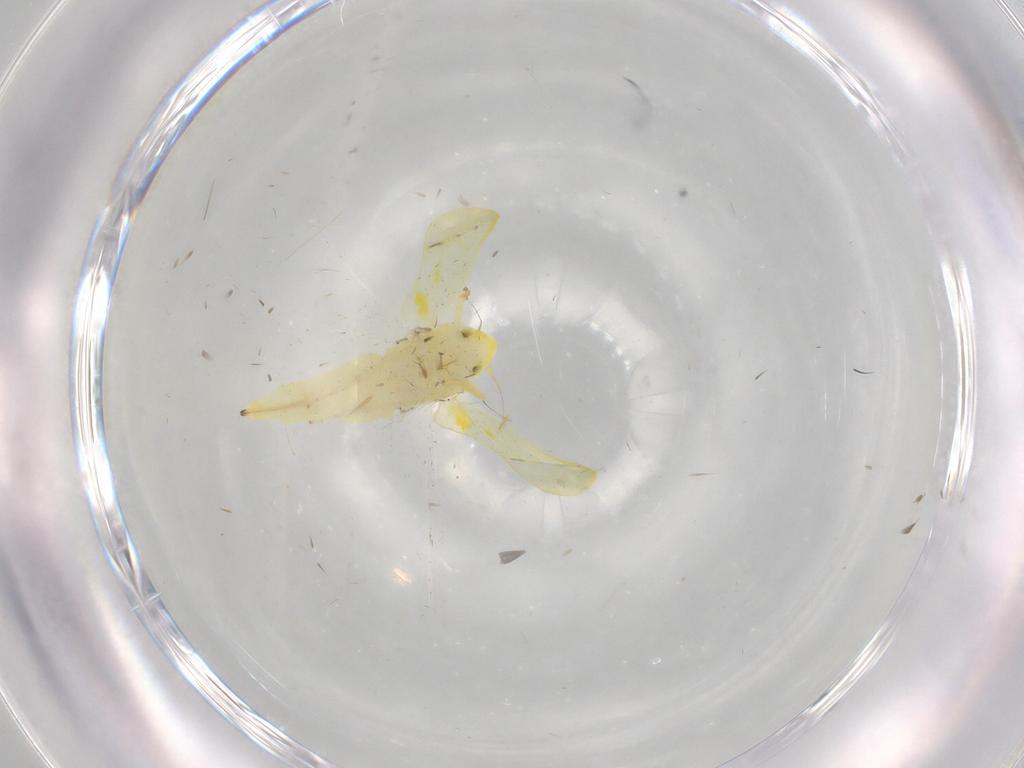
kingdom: Animalia
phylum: Arthropoda
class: Insecta
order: Hemiptera
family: Cicadellidae
